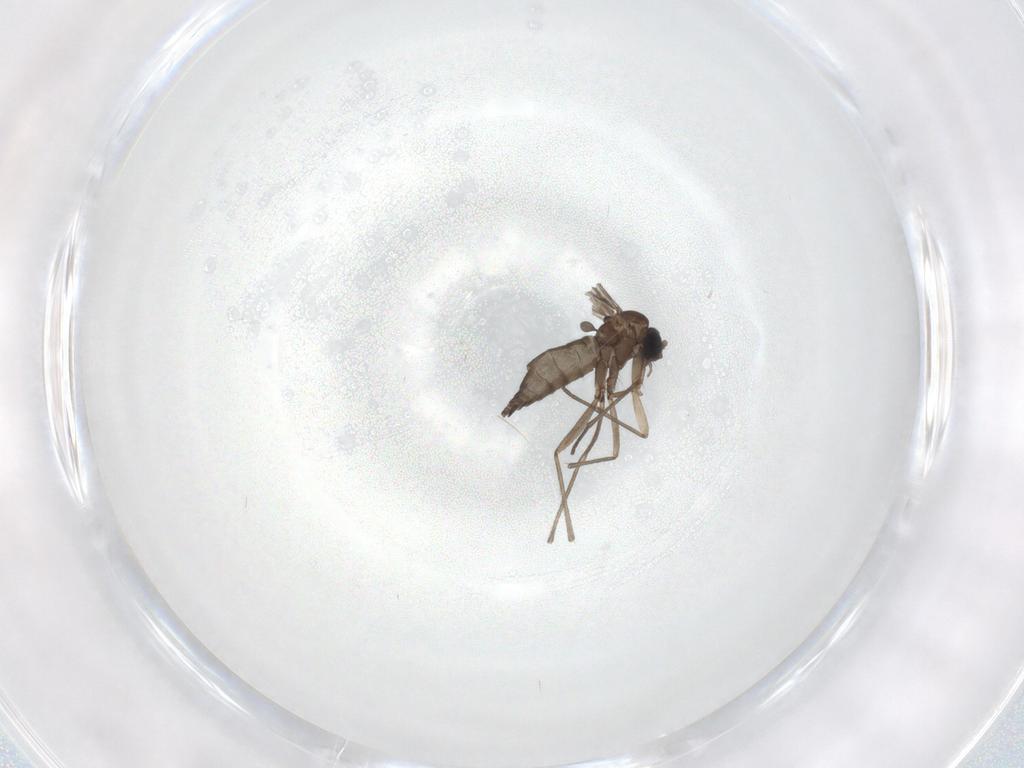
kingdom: Animalia
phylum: Arthropoda
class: Insecta
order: Diptera
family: Sciaridae
